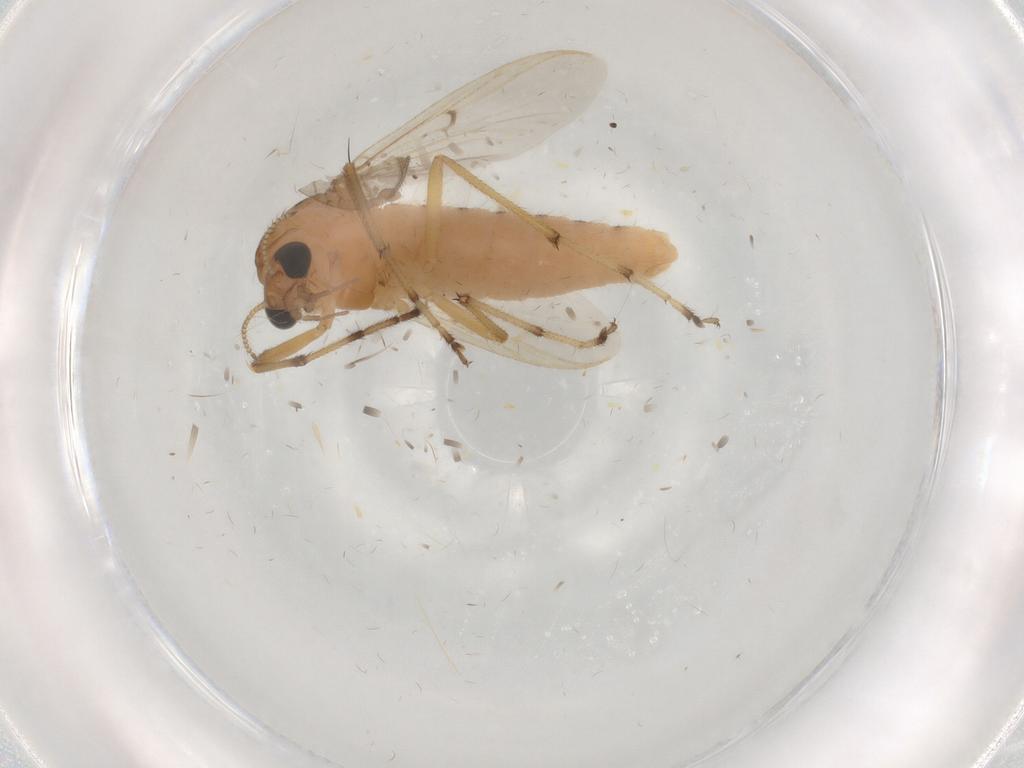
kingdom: Animalia
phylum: Arthropoda
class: Insecta
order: Diptera
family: Chironomidae
